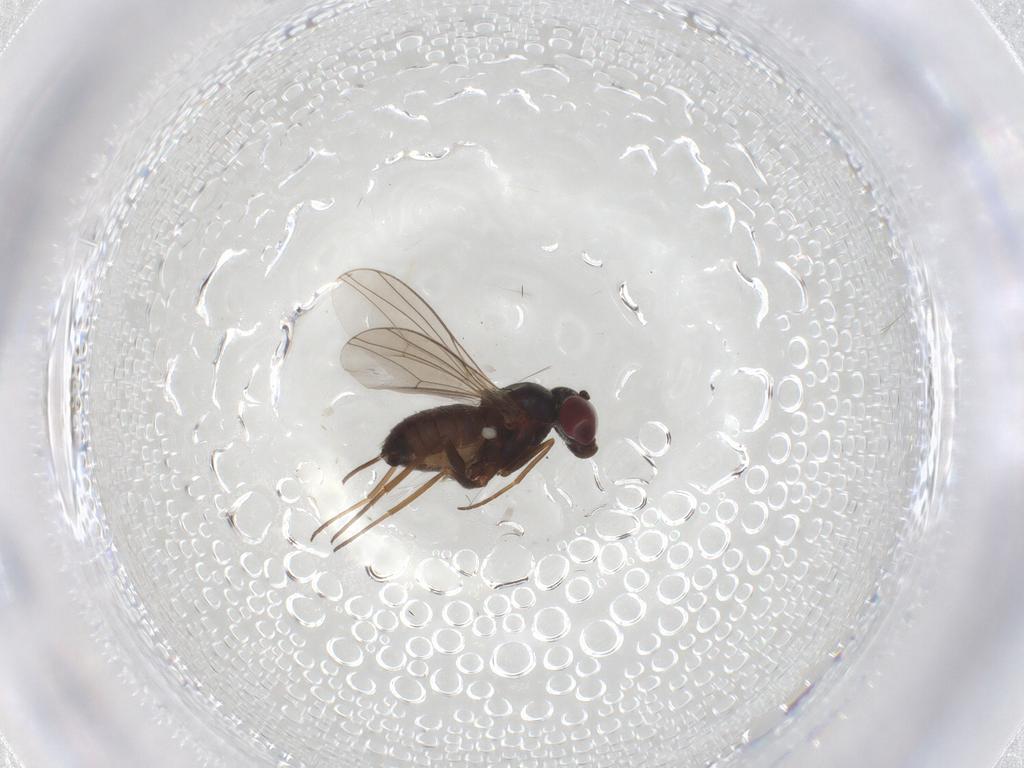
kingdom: Animalia
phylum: Arthropoda
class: Insecta
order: Diptera
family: Dolichopodidae
